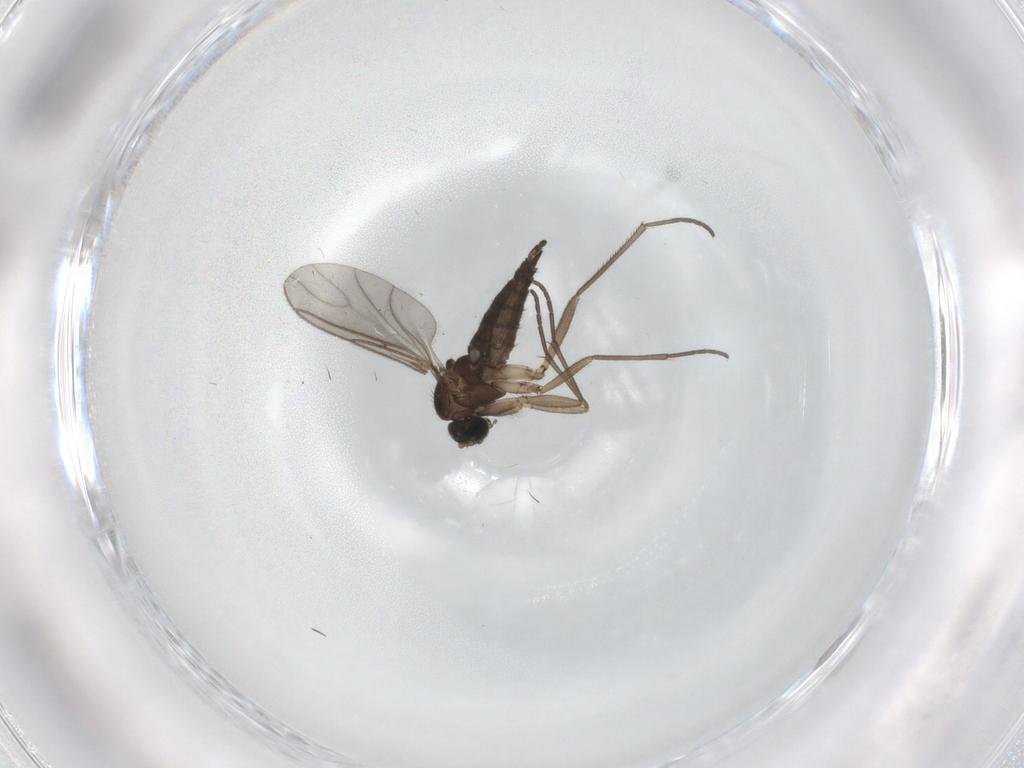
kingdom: Animalia
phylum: Arthropoda
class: Insecta
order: Diptera
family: Sciaridae
